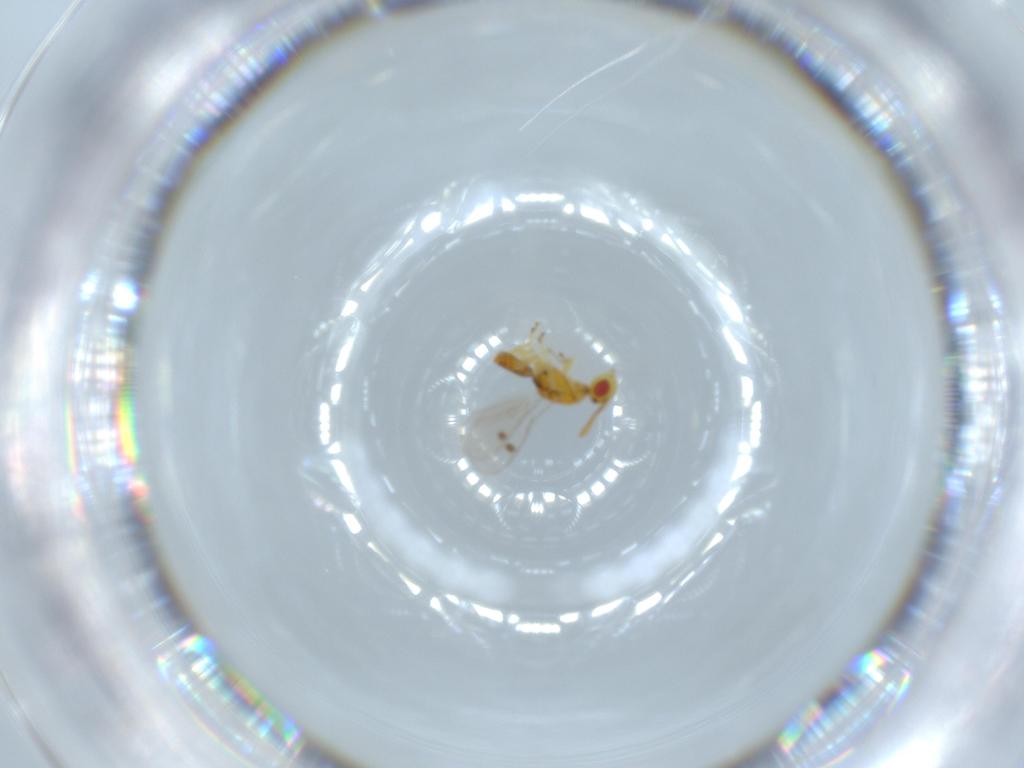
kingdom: Animalia
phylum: Arthropoda
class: Insecta
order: Hymenoptera
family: Megastigmidae
